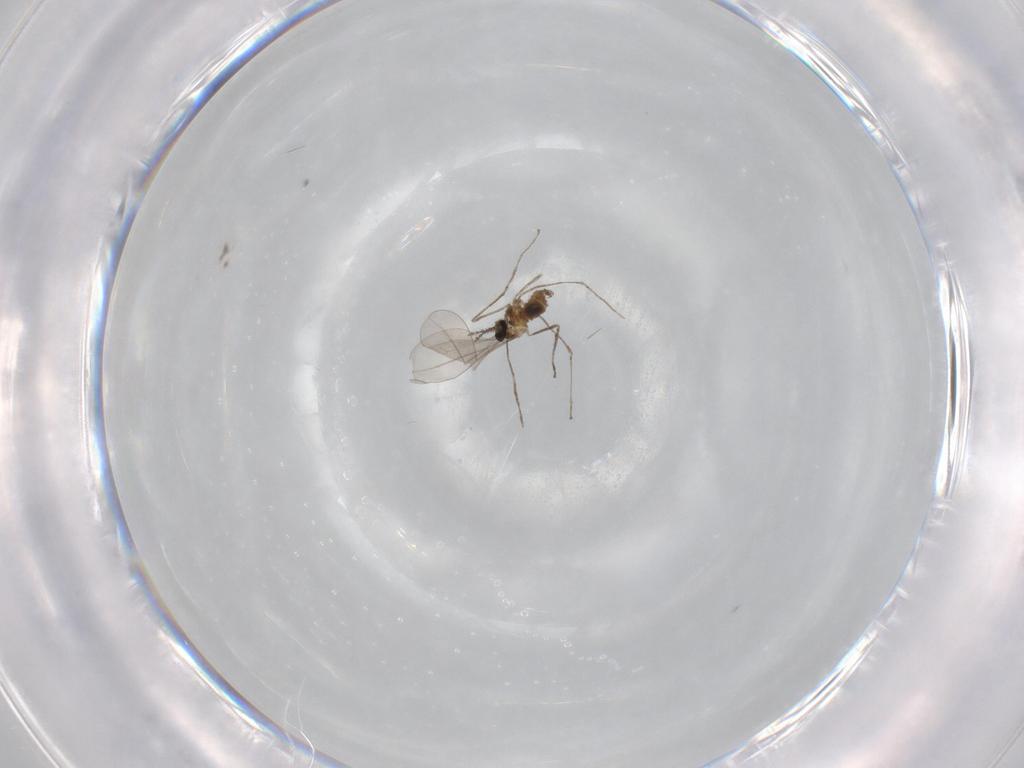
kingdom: Animalia
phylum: Arthropoda
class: Insecta
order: Diptera
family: Cecidomyiidae
